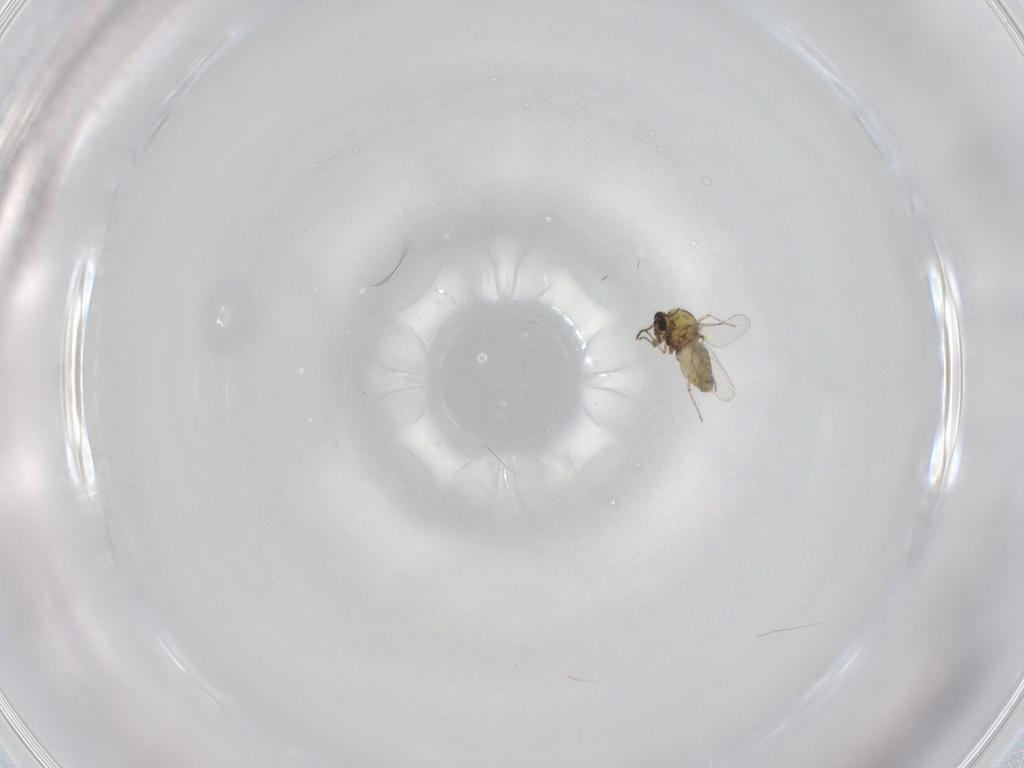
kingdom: Animalia
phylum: Arthropoda
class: Insecta
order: Diptera
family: Ceratopogonidae
